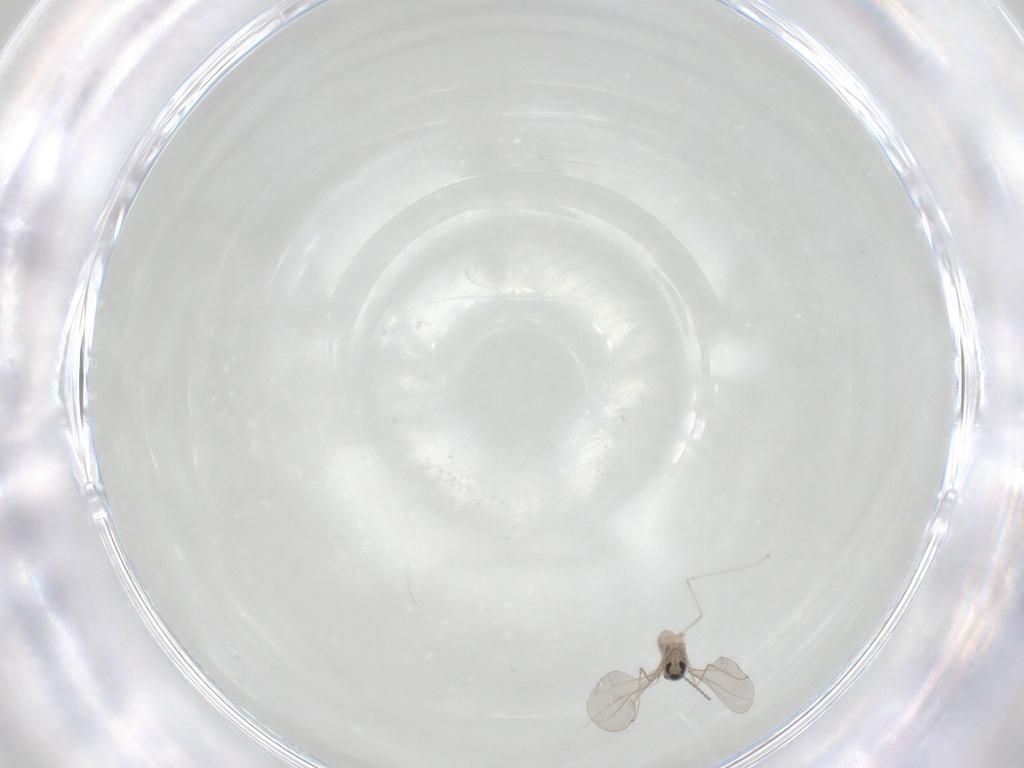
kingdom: Animalia
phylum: Arthropoda
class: Insecta
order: Diptera
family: Cecidomyiidae
